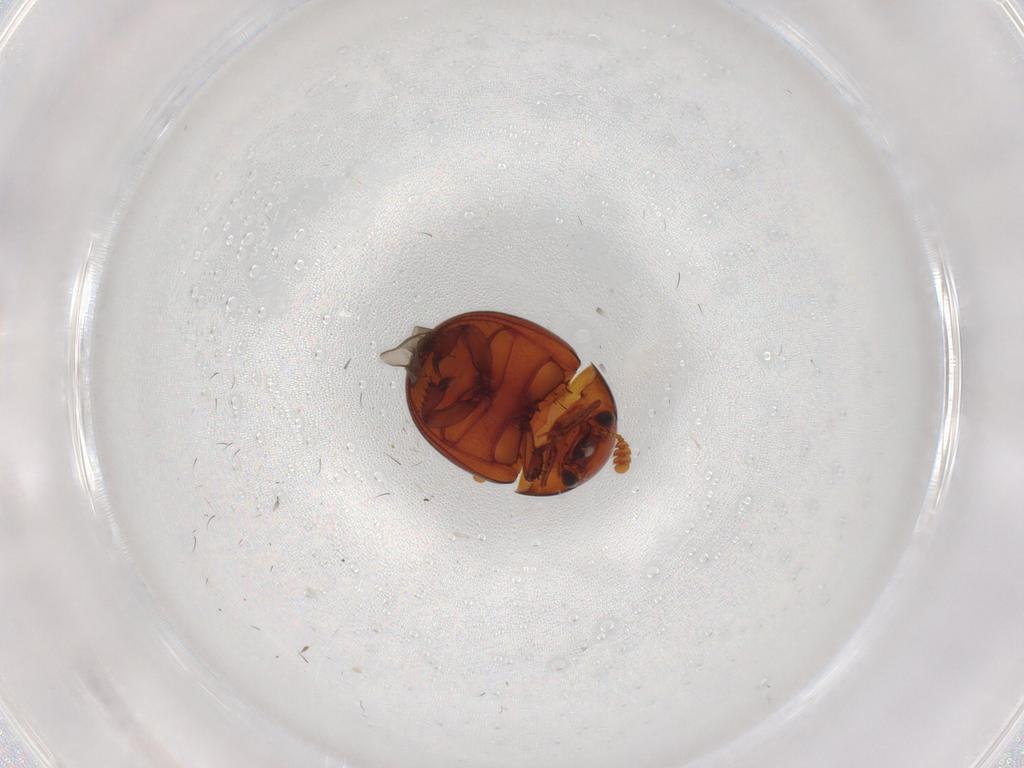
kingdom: Animalia
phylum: Arthropoda
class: Insecta
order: Coleoptera
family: Leiodidae
